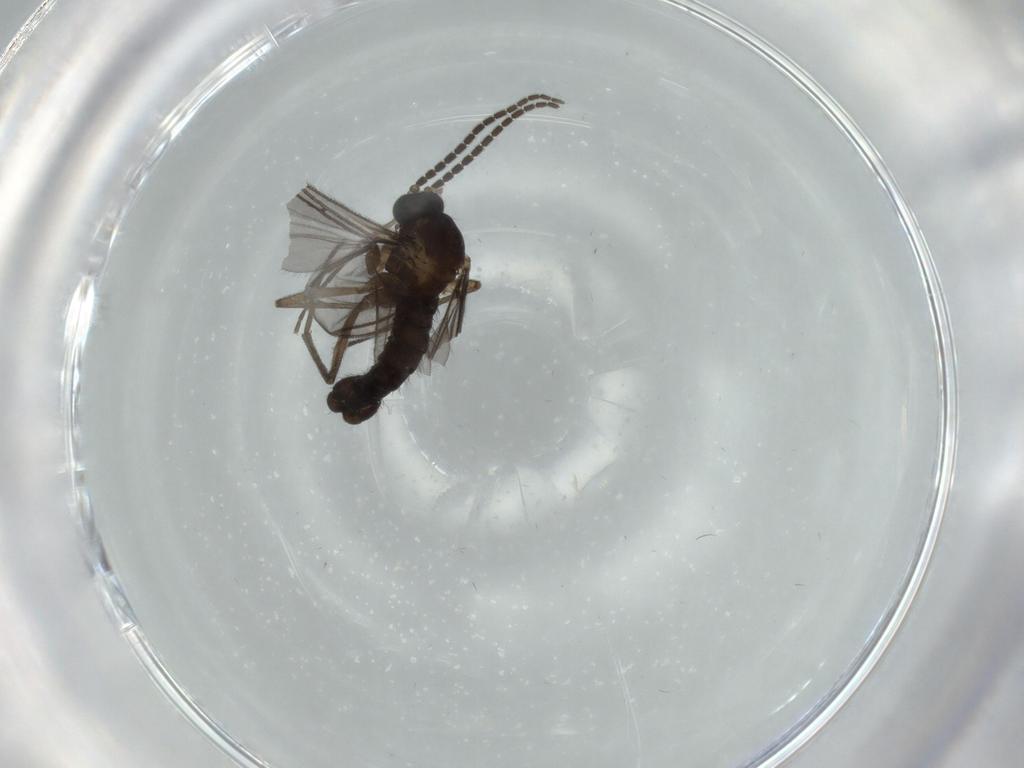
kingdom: Animalia
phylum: Arthropoda
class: Insecta
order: Diptera
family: Sciaridae
